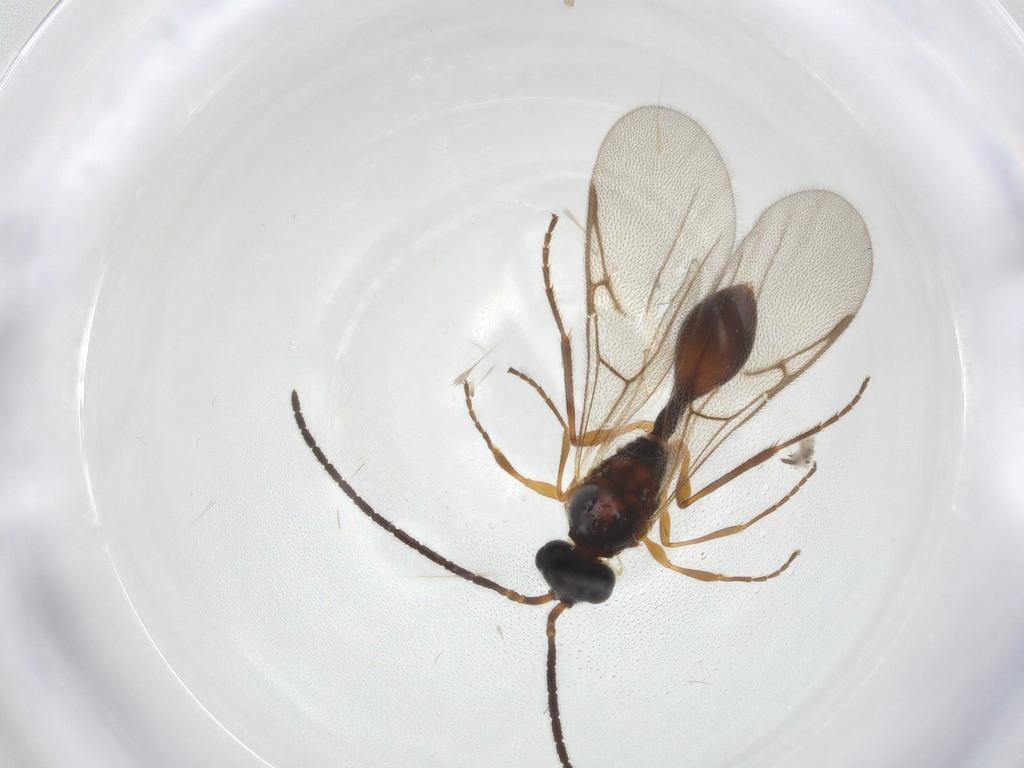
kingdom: Animalia
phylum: Arthropoda
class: Insecta
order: Hymenoptera
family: Diapriidae
